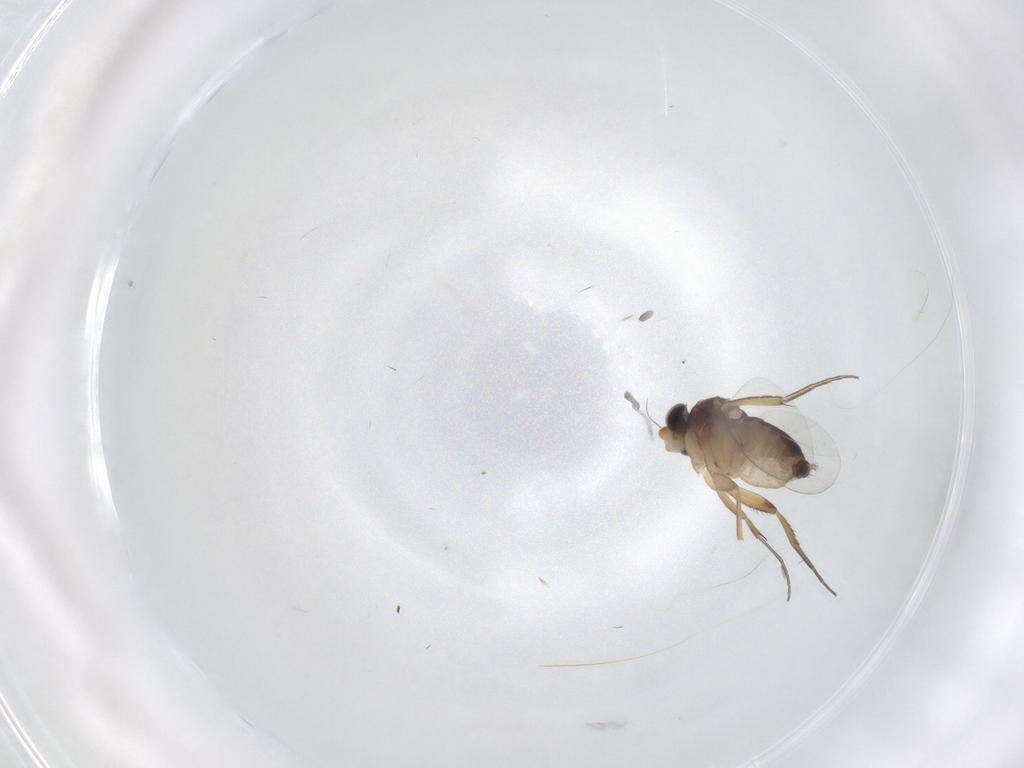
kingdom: Animalia
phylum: Arthropoda
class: Insecta
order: Diptera
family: Phoridae
